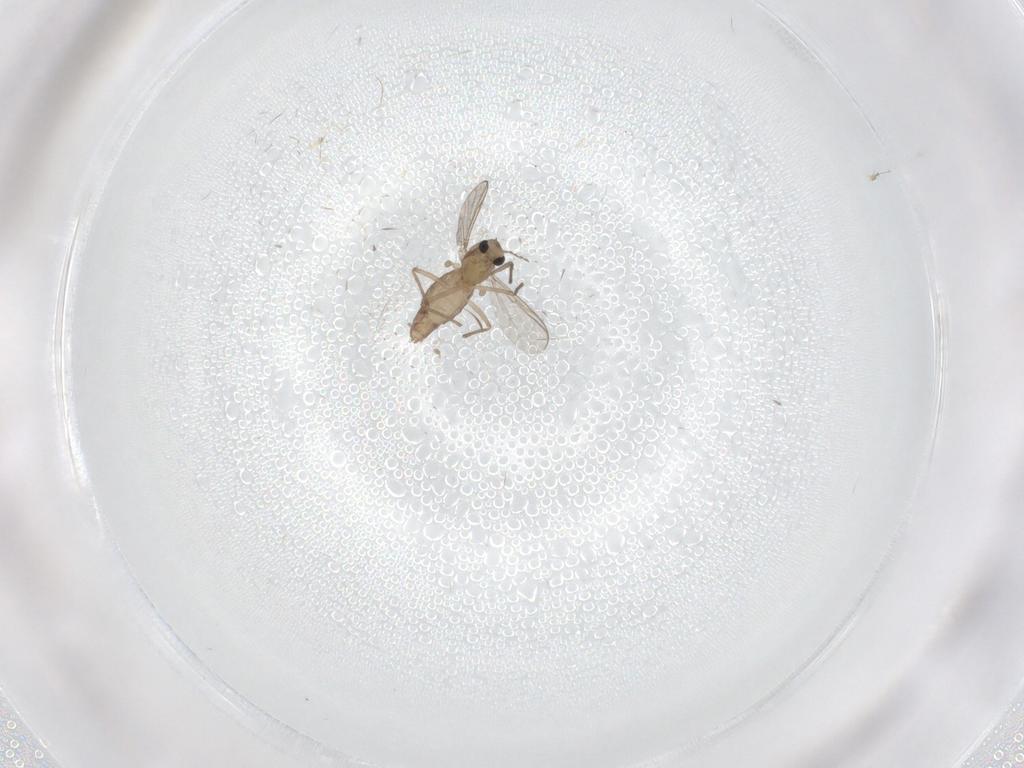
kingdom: Animalia
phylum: Arthropoda
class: Insecta
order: Diptera
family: Chironomidae
